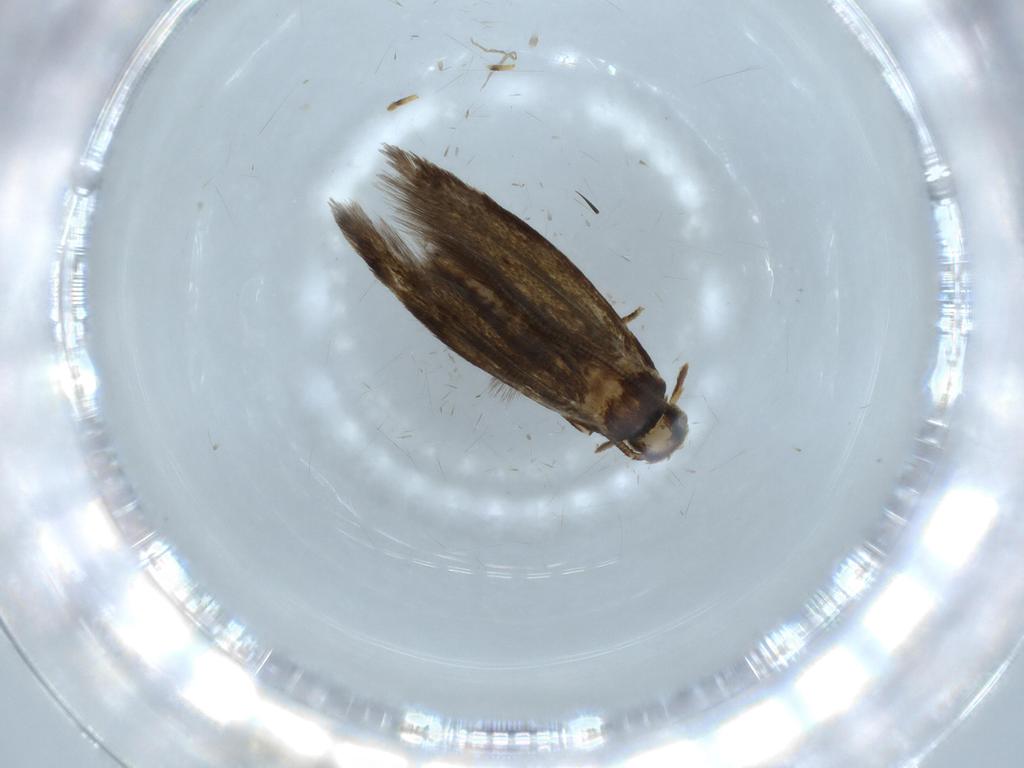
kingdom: Animalia
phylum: Arthropoda
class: Insecta
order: Lepidoptera
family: Tineidae
